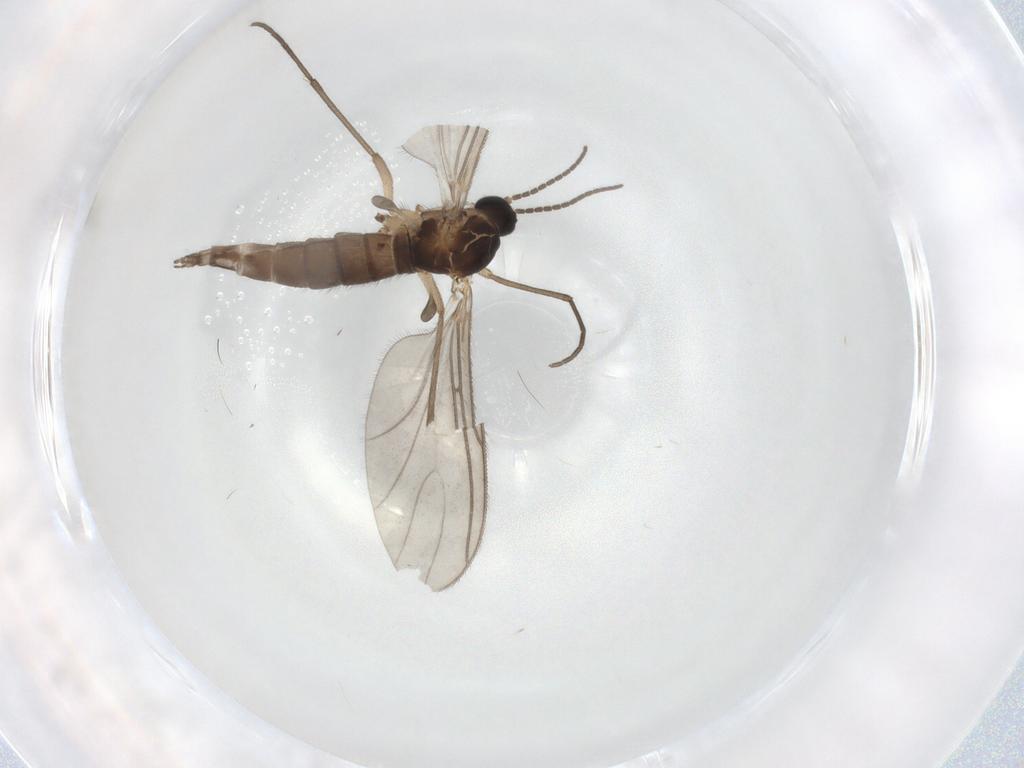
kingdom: Animalia
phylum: Arthropoda
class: Insecta
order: Diptera
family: Sciaridae
